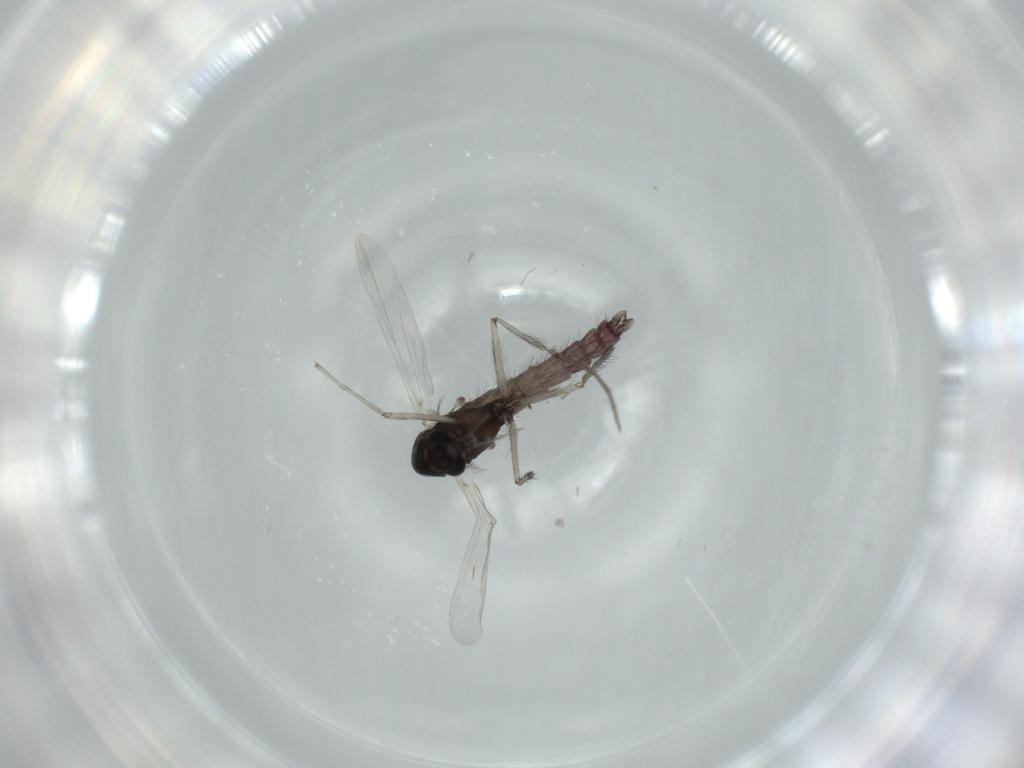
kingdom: Animalia
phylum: Arthropoda
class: Insecta
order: Diptera
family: Chironomidae
